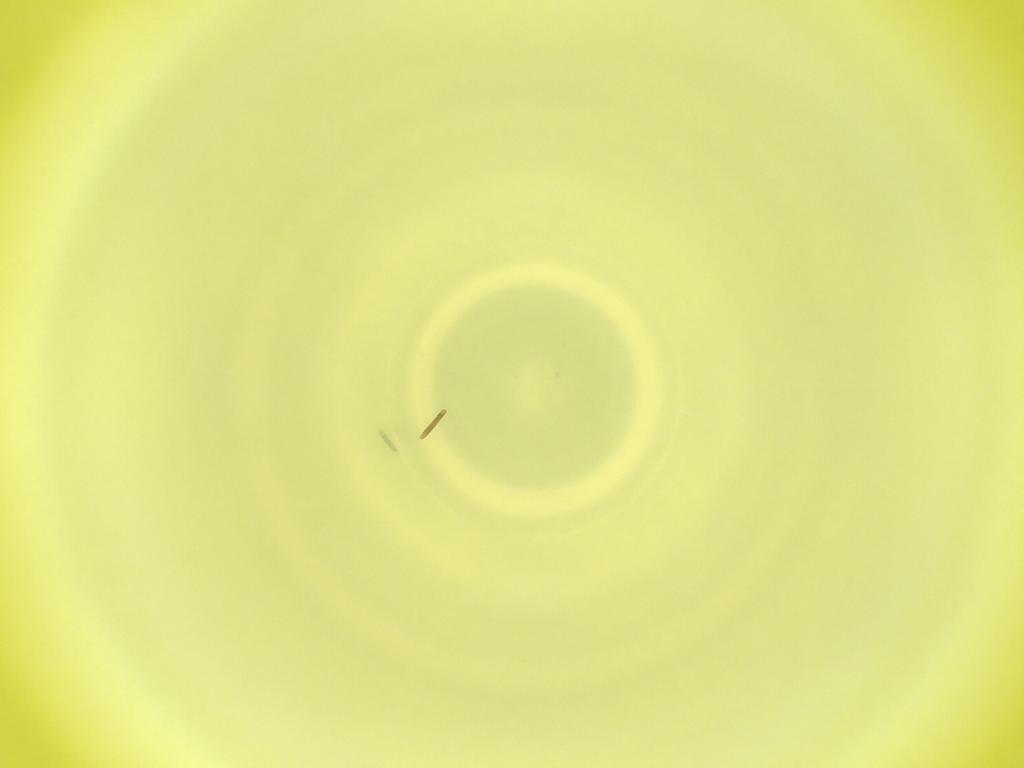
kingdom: Animalia
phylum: Arthropoda
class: Insecta
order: Diptera
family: Cecidomyiidae
